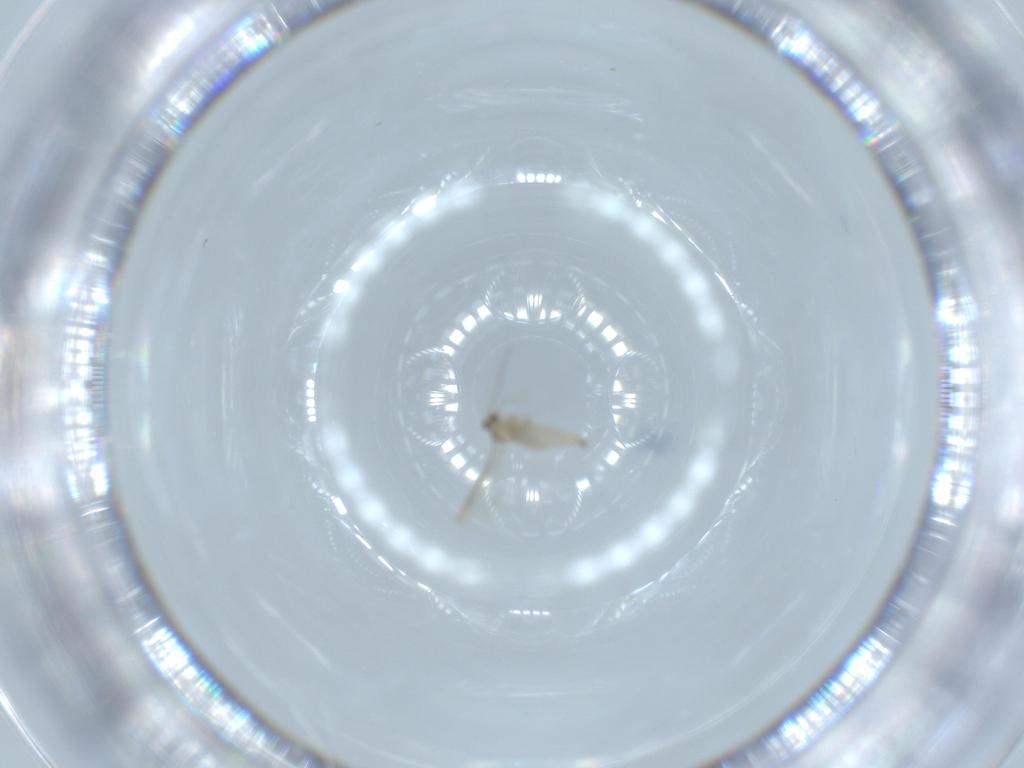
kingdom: Animalia
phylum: Arthropoda
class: Insecta
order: Diptera
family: Cecidomyiidae
